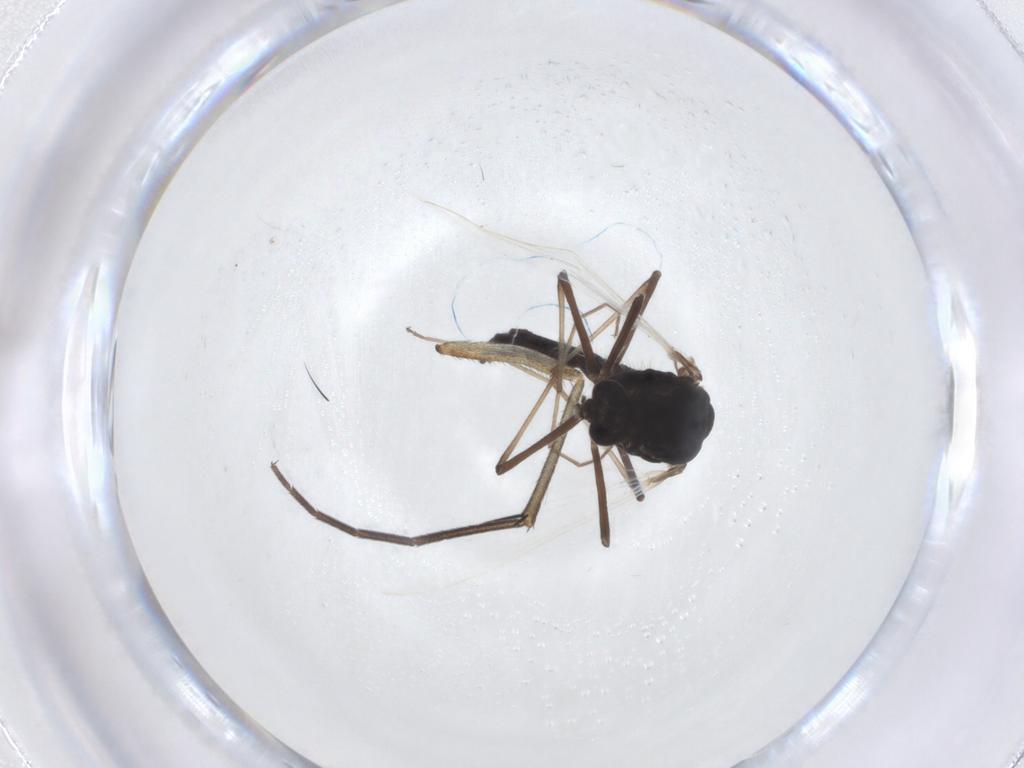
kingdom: Animalia
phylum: Arthropoda
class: Insecta
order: Diptera
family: Chironomidae
